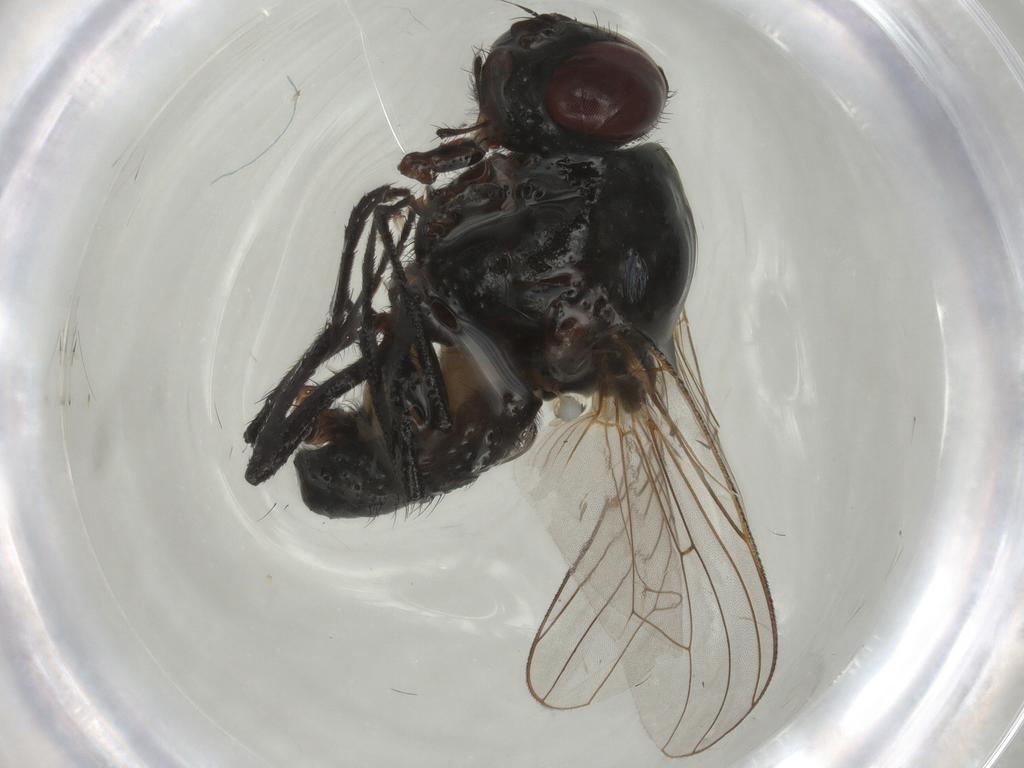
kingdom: Animalia
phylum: Arthropoda
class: Insecta
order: Diptera
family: Anthomyiidae
